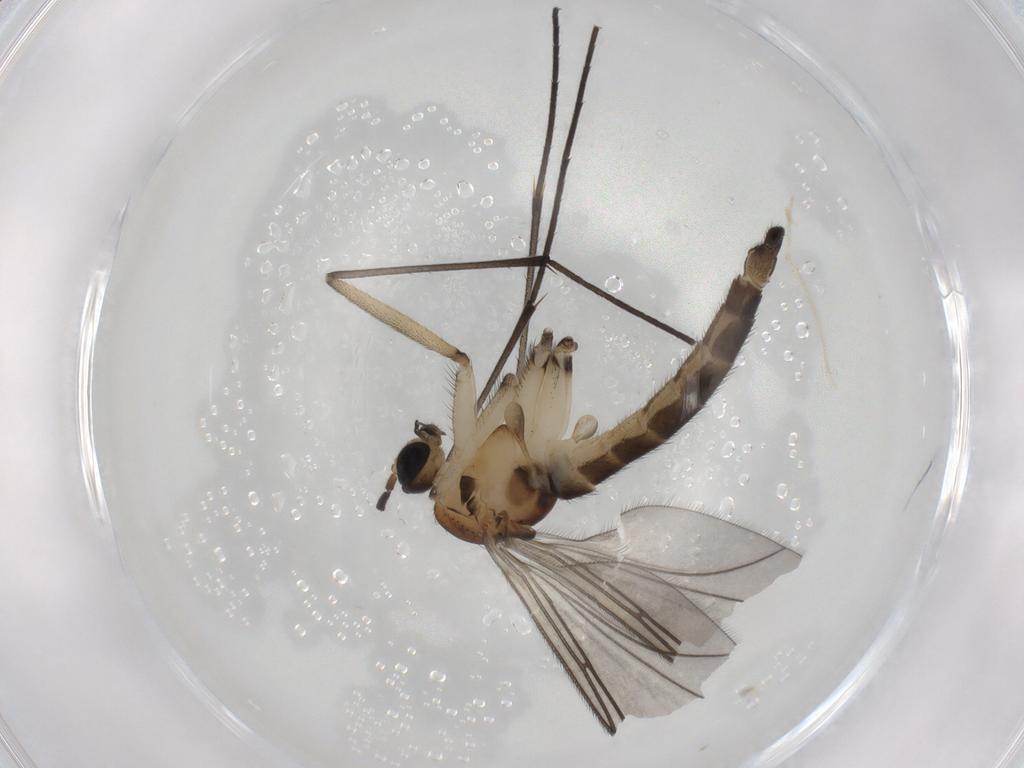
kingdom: Animalia
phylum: Arthropoda
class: Insecta
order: Diptera
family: Sciaridae
